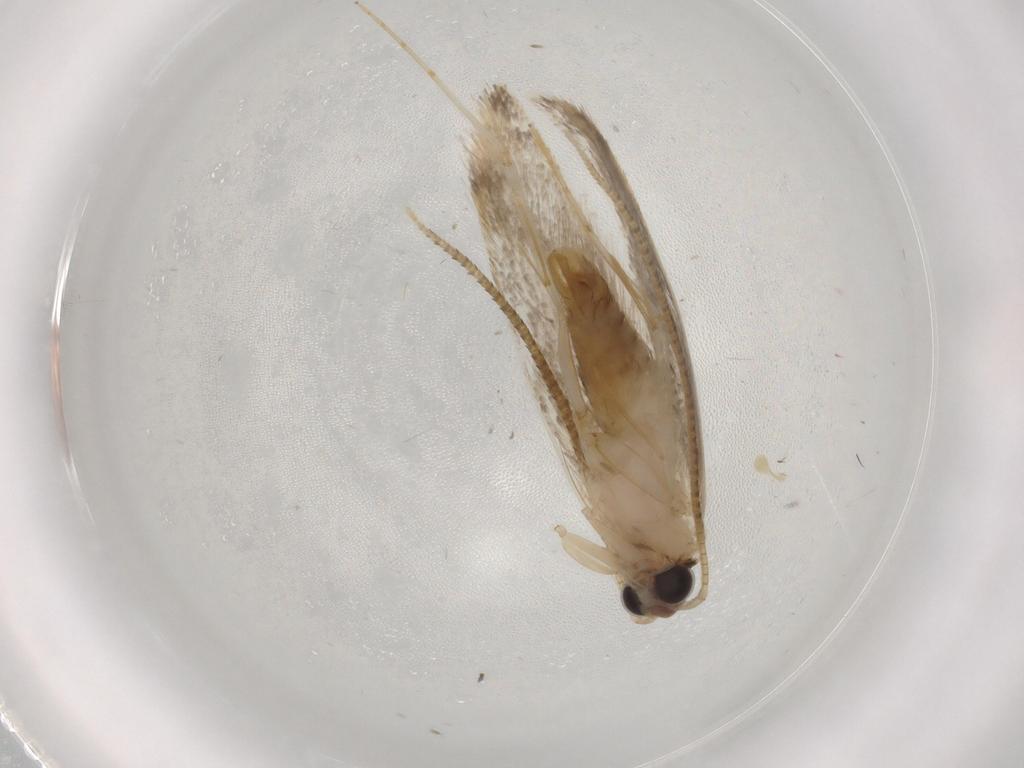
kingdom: Animalia
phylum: Arthropoda
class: Insecta
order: Lepidoptera
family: Tineidae
